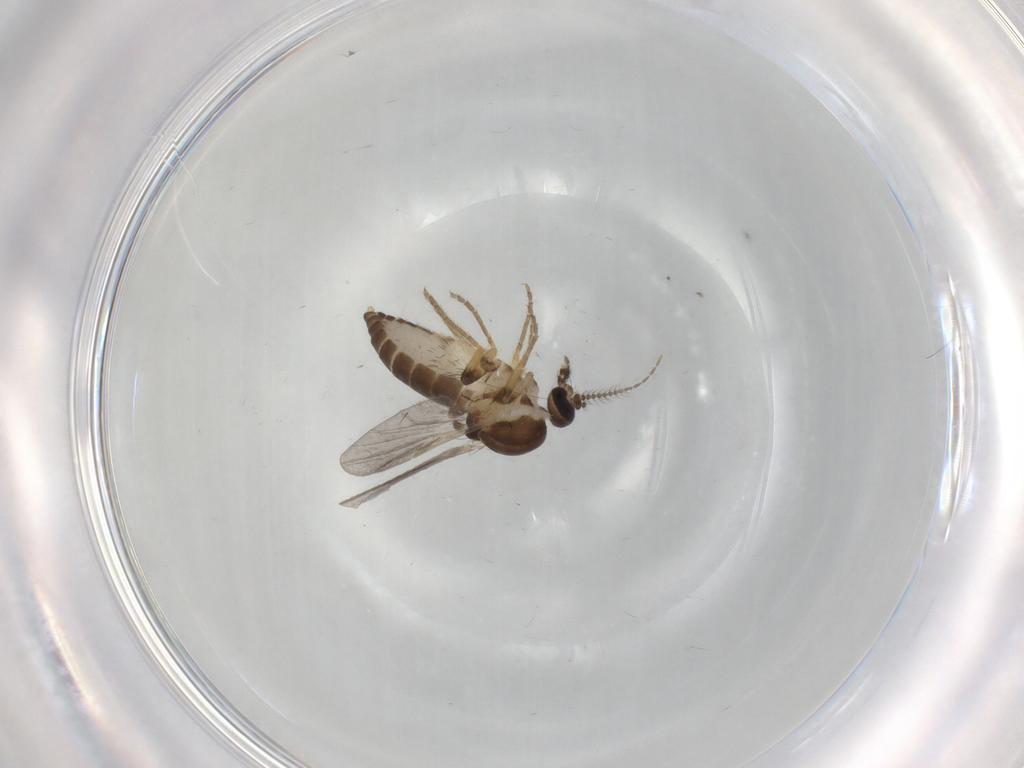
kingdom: Animalia
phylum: Arthropoda
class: Insecta
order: Diptera
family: Ceratopogonidae
